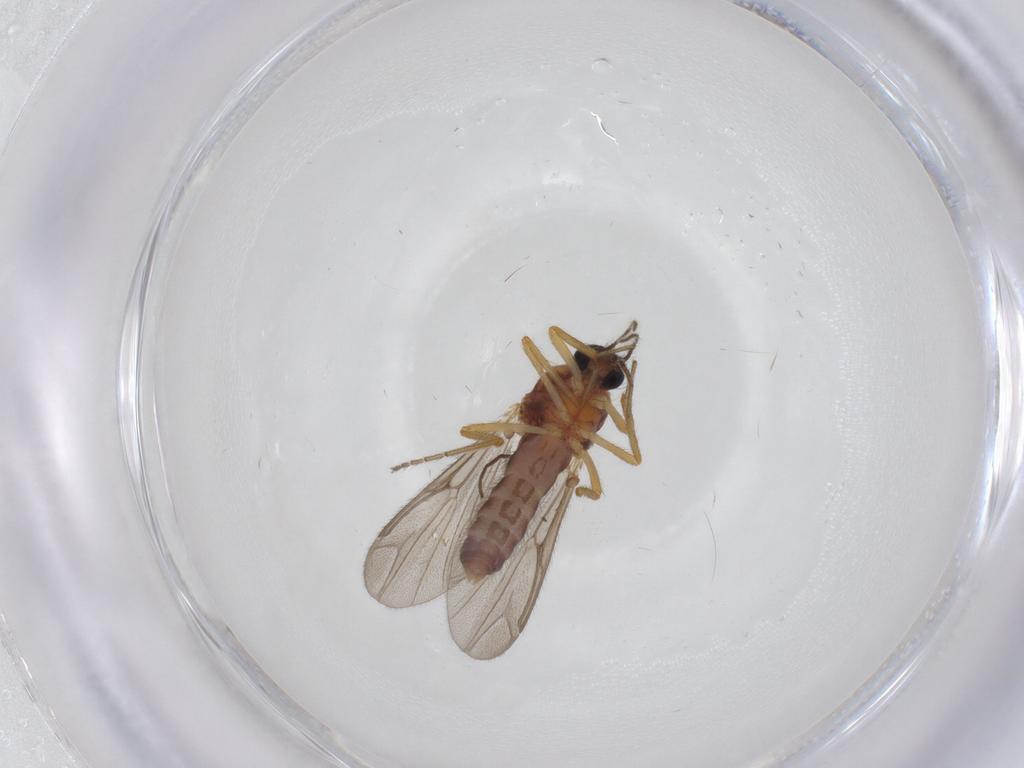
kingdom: Animalia
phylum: Arthropoda
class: Insecta
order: Diptera
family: Ceratopogonidae
